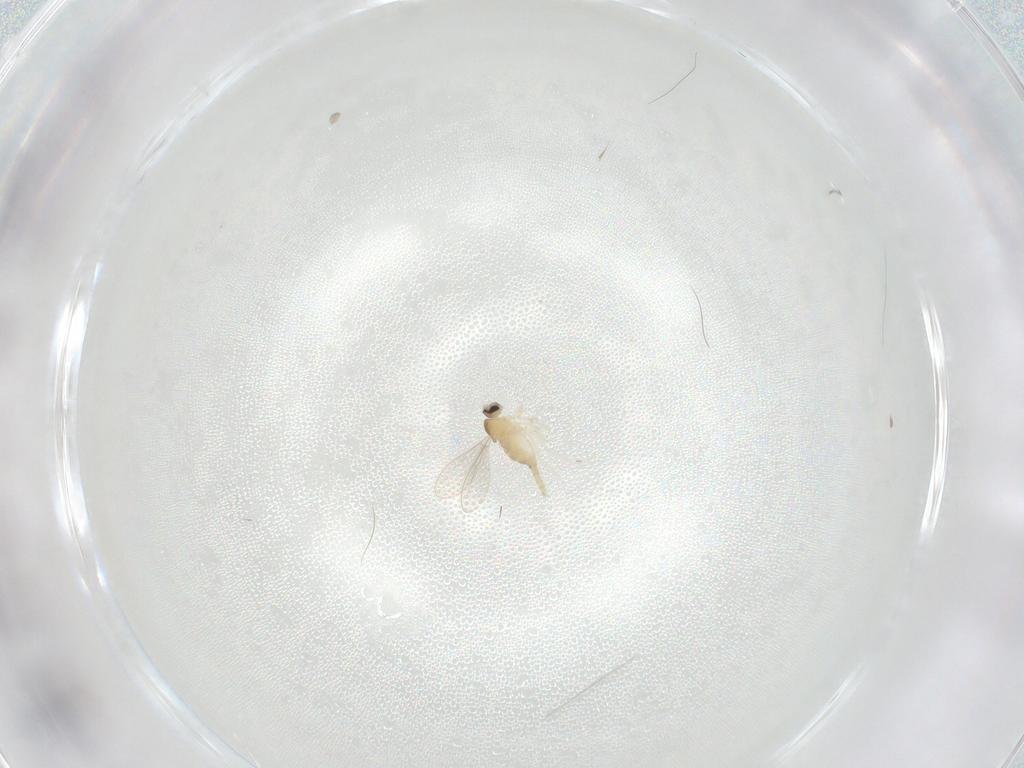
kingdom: Animalia
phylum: Arthropoda
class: Insecta
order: Diptera
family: Cecidomyiidae
